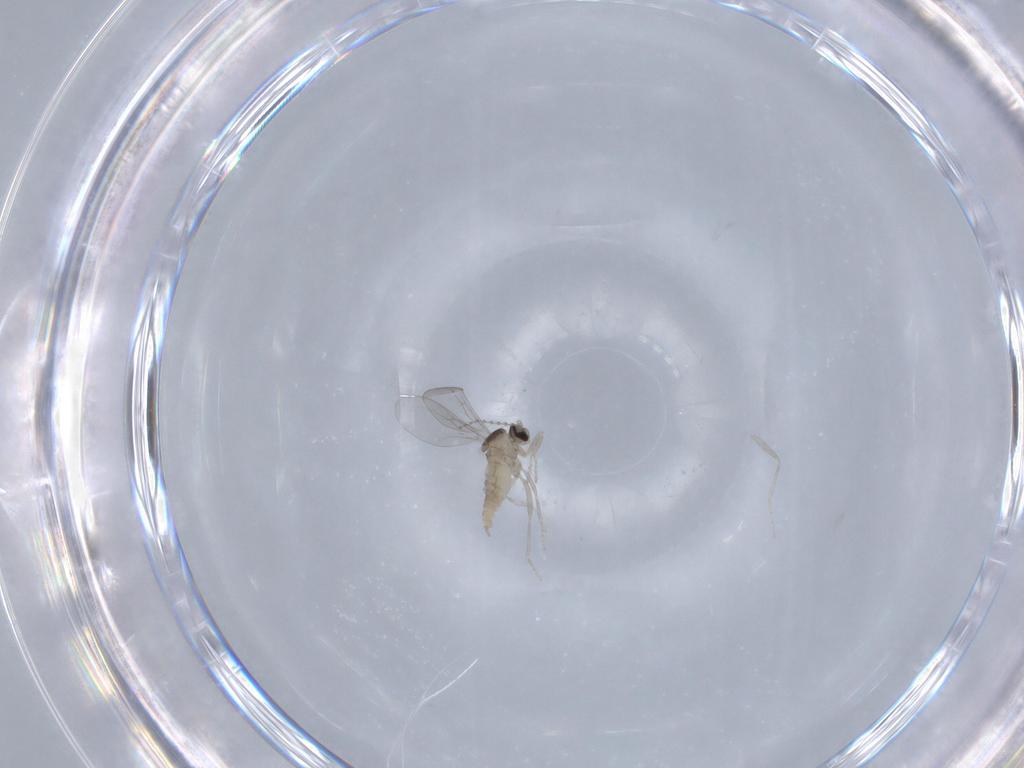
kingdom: Animalia
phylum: Arthropoda
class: Insecta
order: Diptera
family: Cecidomyiidae
